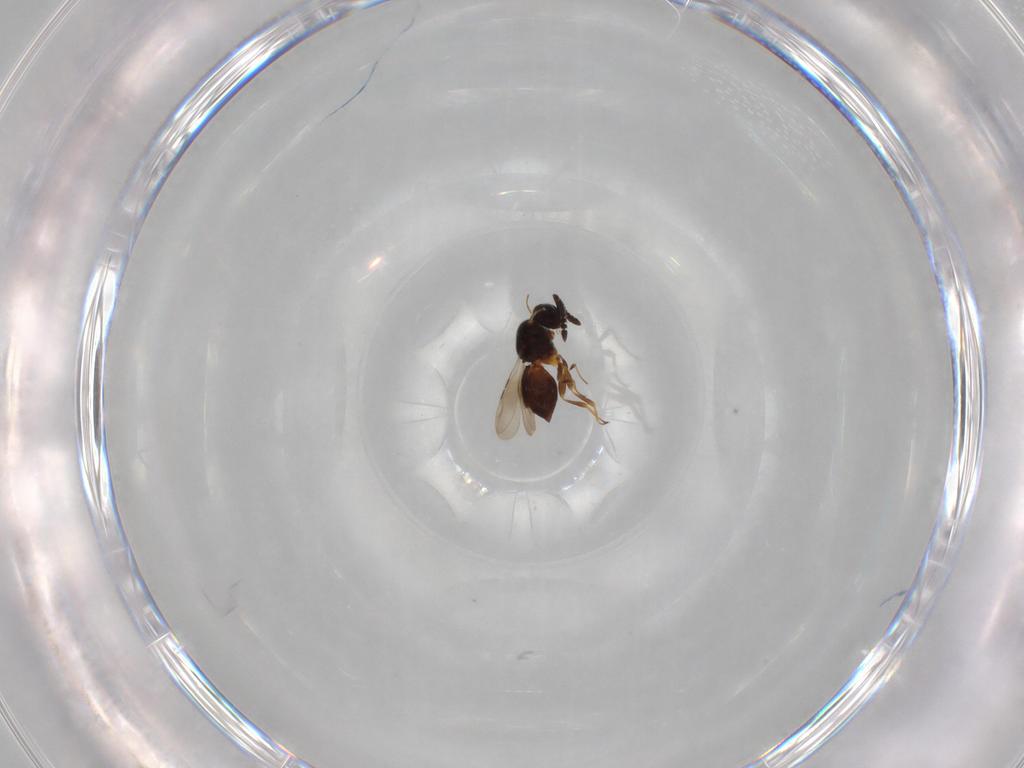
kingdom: Animalia
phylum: Arthropoda
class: Insecta
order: Hymenoptera
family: Ceraphronidae
